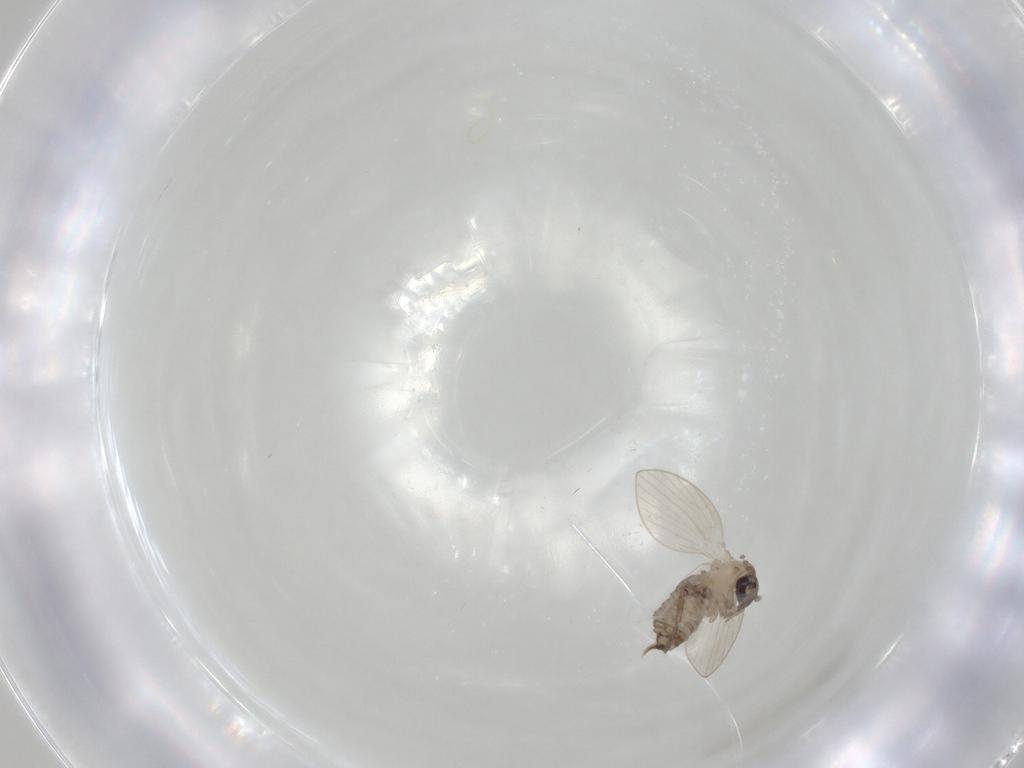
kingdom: Animalia
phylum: Arthropoda
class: Insecta
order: Diptera
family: Psychodidae
